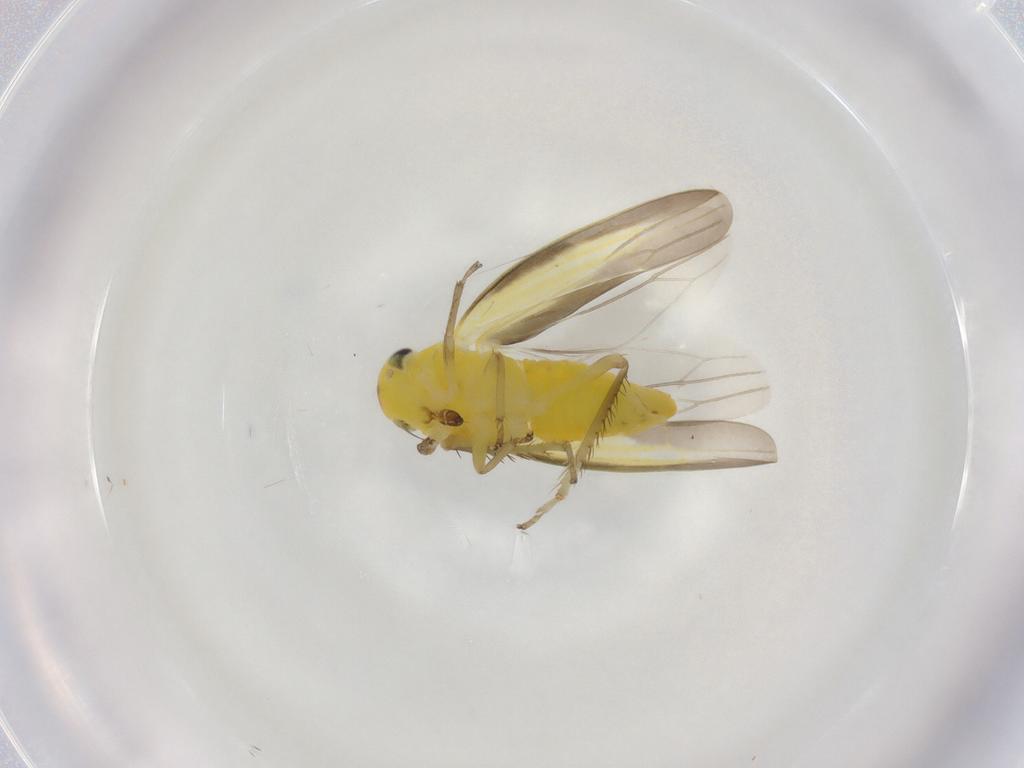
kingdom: Animalia
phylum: Arthropoda
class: Insecta
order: Hemiptera
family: Cicadellidae
